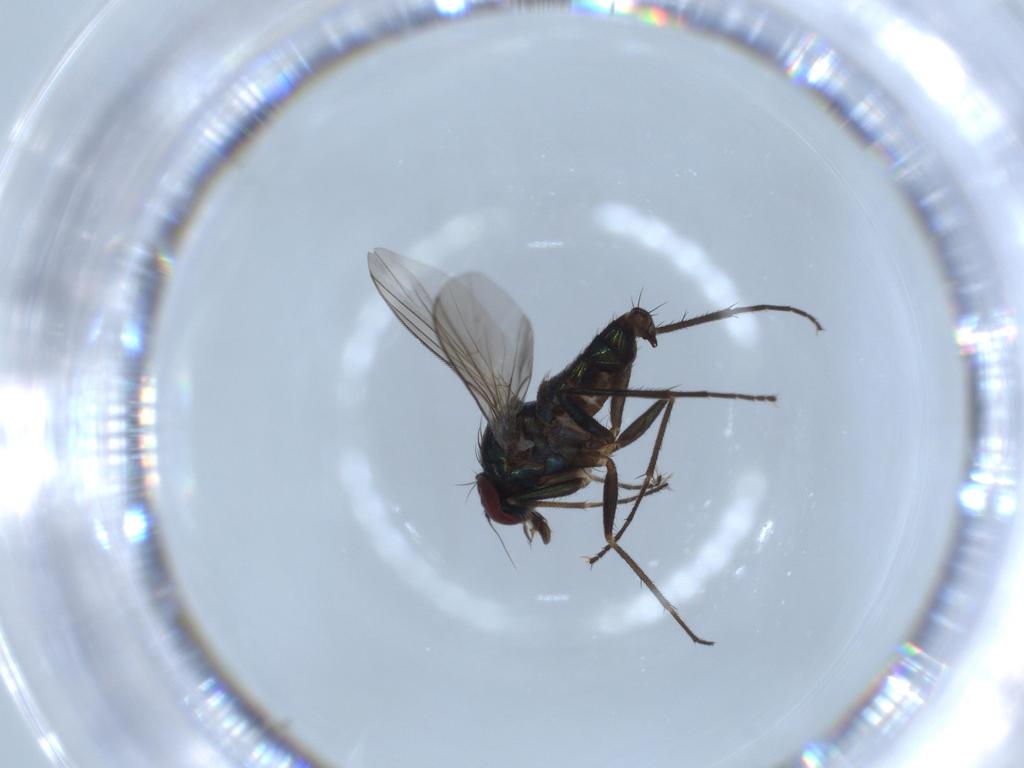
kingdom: Animalia
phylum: Arthropoda
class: Insecta
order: Diptera
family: Dolichopodidae
